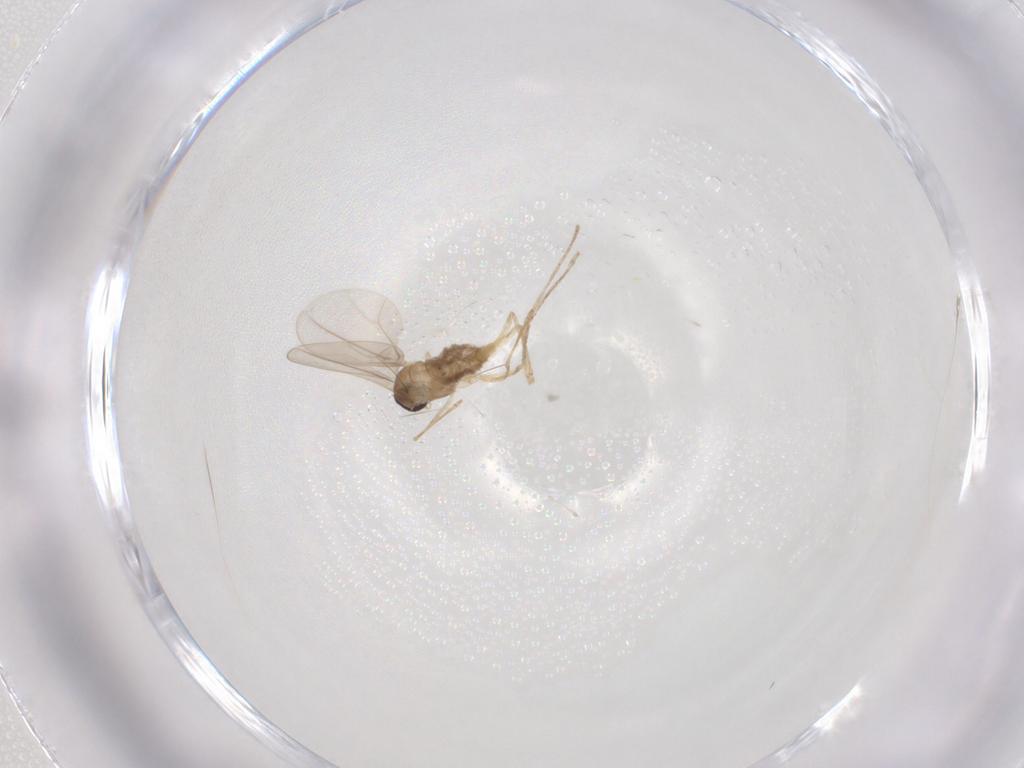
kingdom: Animalia
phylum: Arthropoda
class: Insecta
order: Diptera
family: Cecidomyiidae
